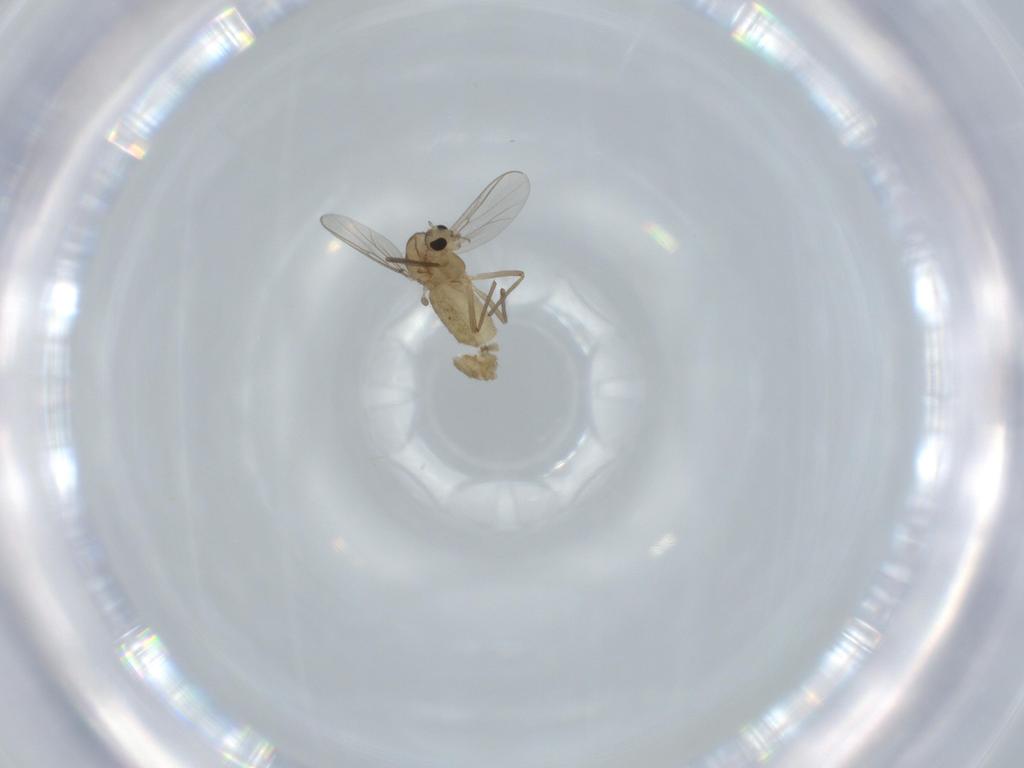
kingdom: Animalia
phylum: Arthropoda
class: Insecta
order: Diptera
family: Chironomidae
